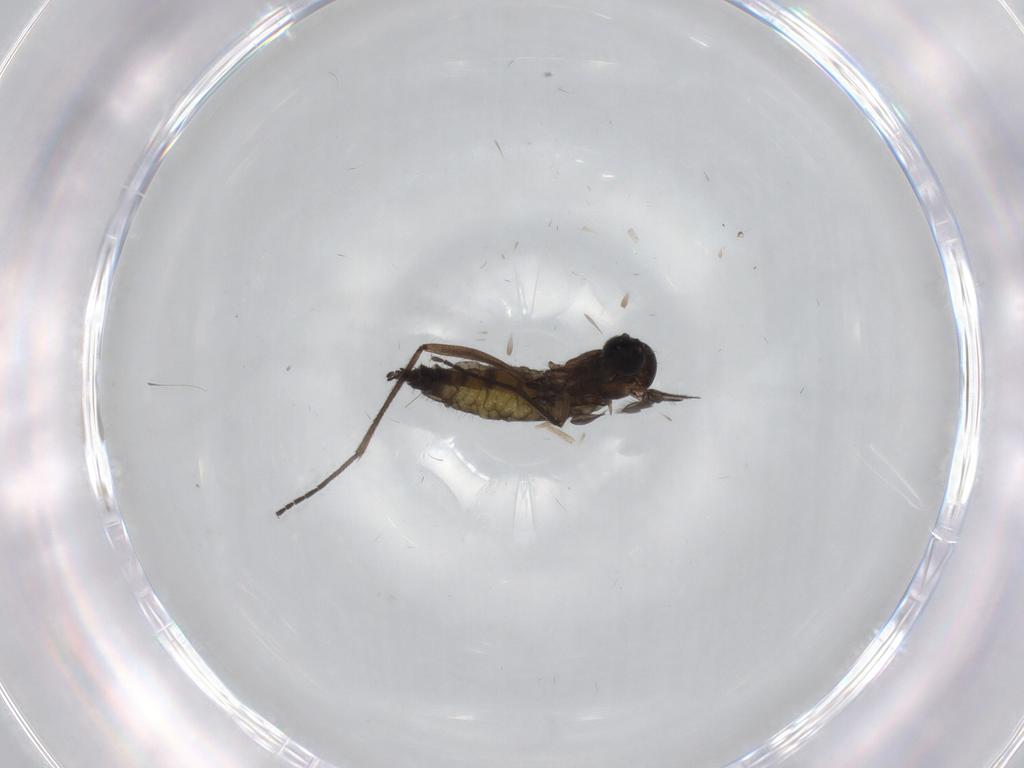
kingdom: Animalia
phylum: Arthropoda
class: Insecta
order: Diptera
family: Sciaridae
